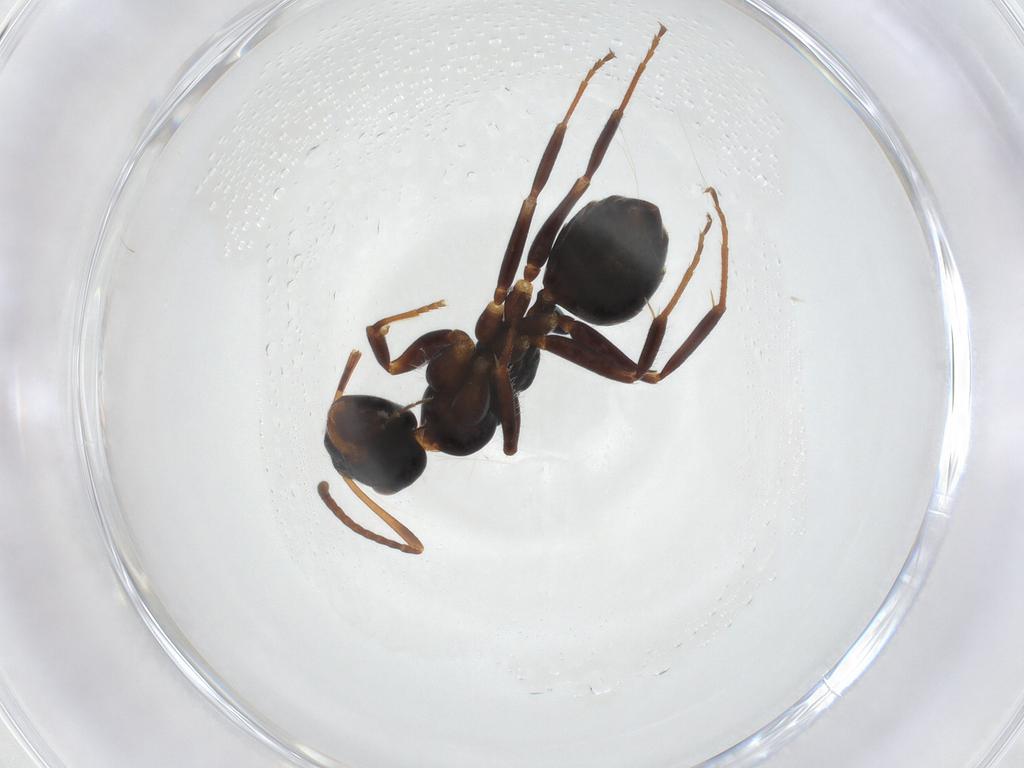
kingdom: Animalia
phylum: Arthropoda
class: Insecta
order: Hymenoptera
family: Formicidae
